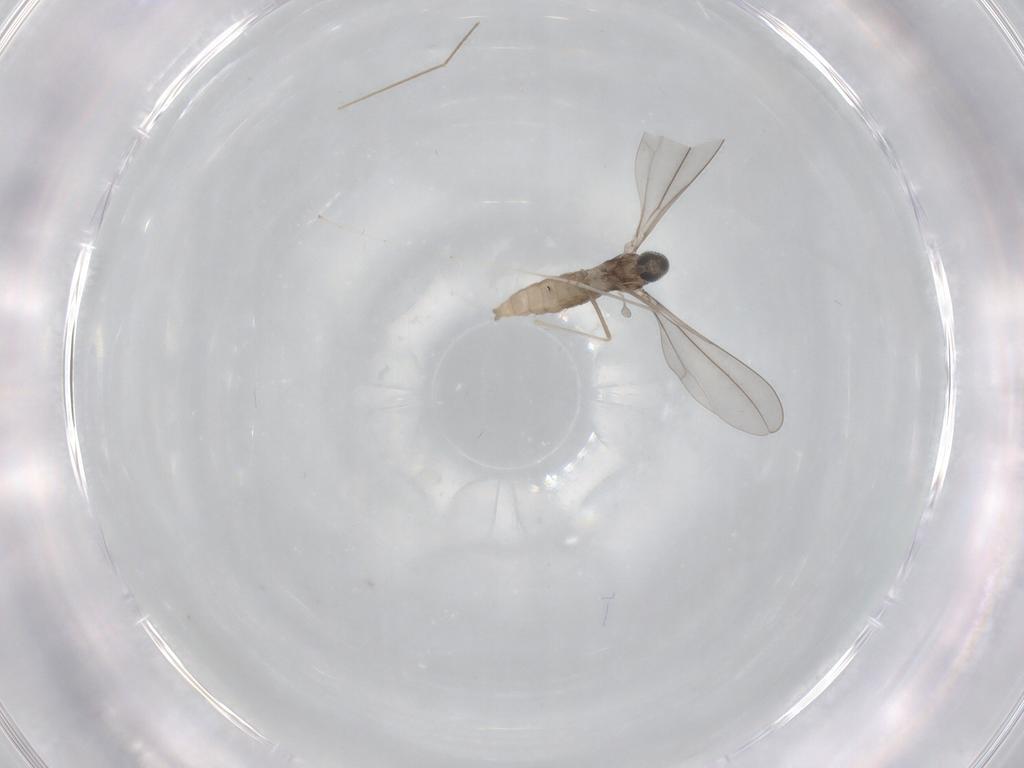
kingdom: Animalia
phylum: Arthropoda
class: Insecta
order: Diptera
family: Cecidomyiidae
